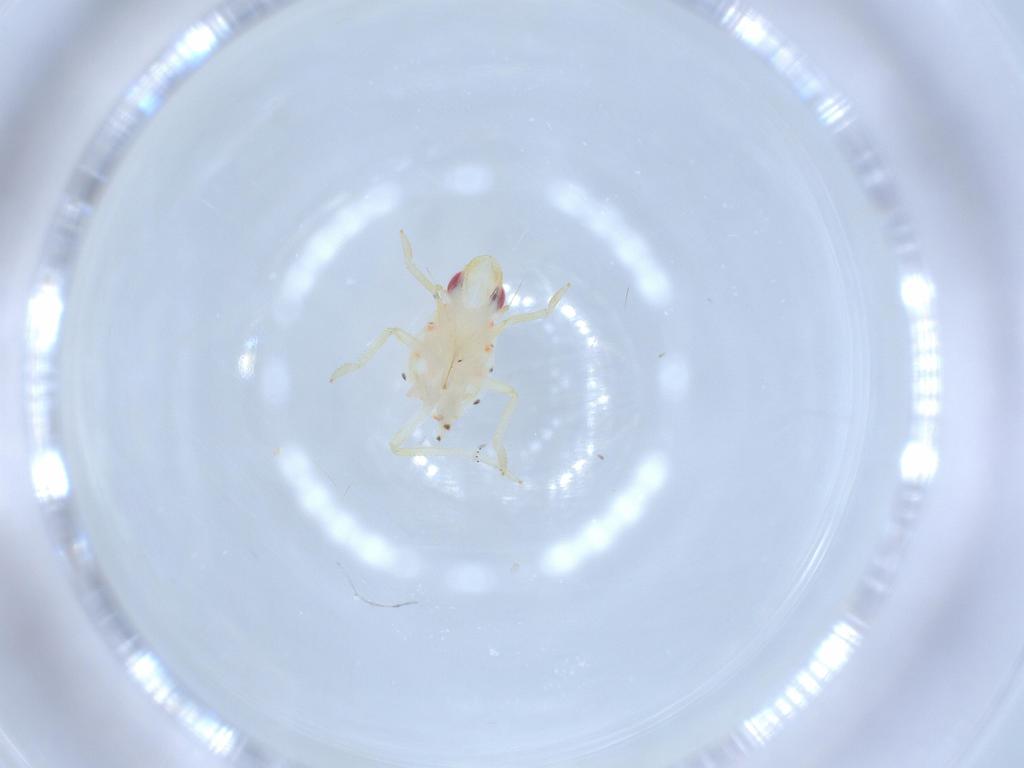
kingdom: Animalia
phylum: Arthropoda
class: Insecta
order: Hemiptera
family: Tropiduchidae
